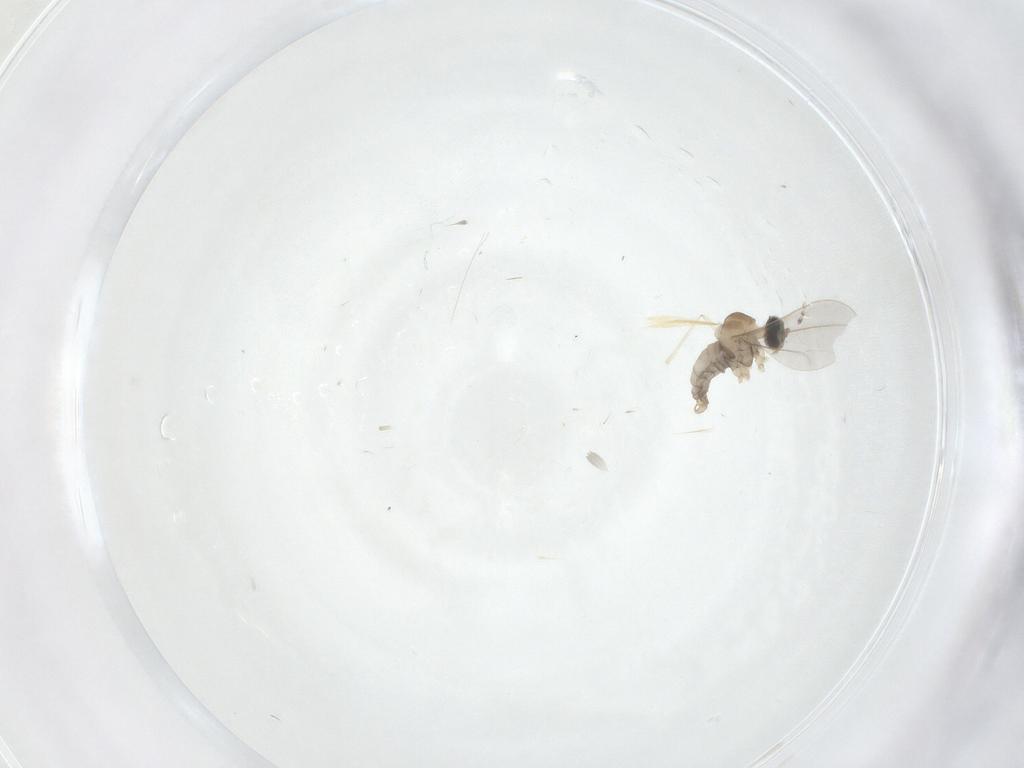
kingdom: Animalia
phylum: Arthropoda
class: Insecta
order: Diptera
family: Cecidomyiidae
